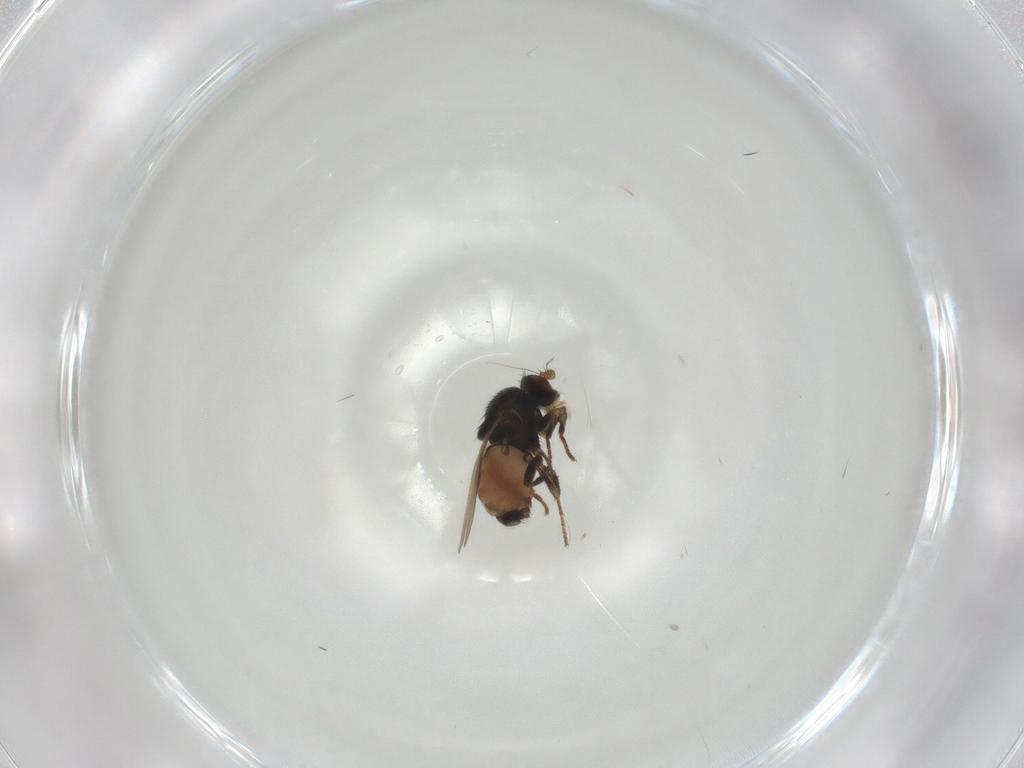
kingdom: Animalia
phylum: Arthropoda
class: Insecta
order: Diptera
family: Sphaeroceridae
